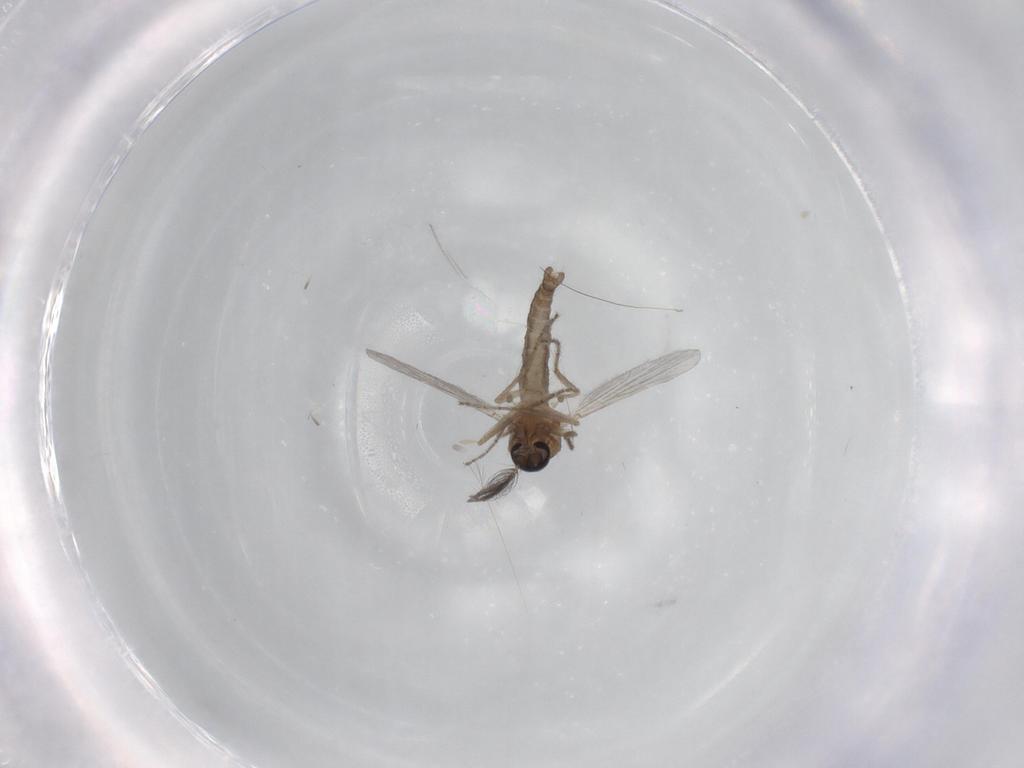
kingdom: Animalia
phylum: Arthropoda
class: Insecta
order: Diptera
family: Ceratopogonidae
